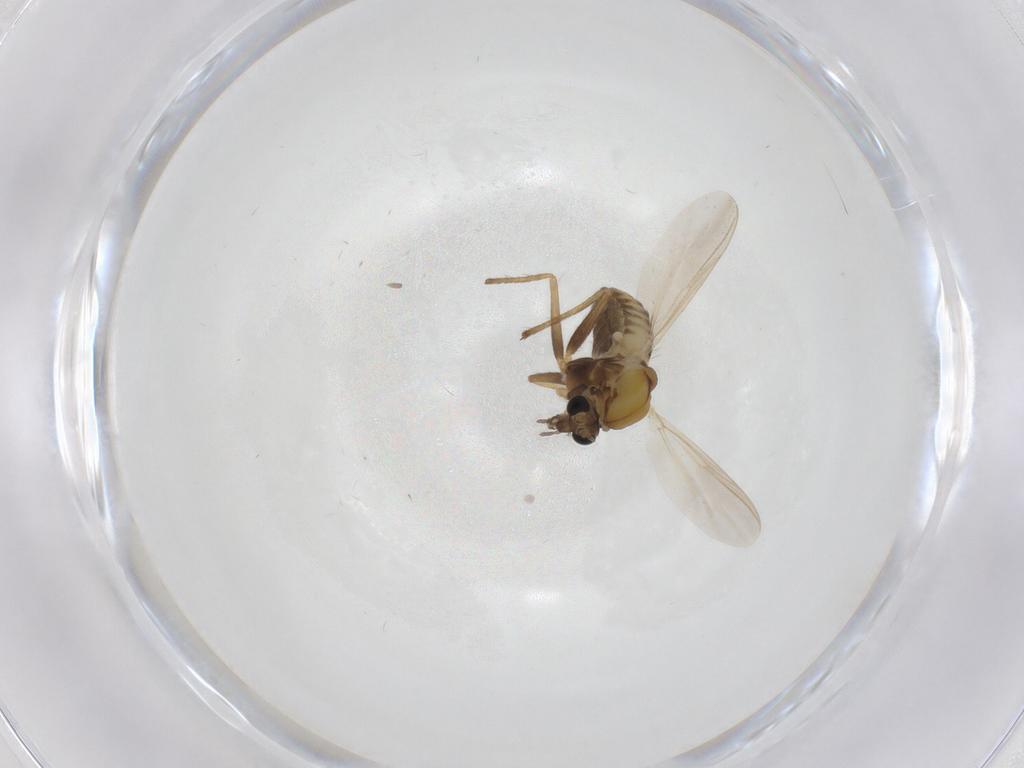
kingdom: Animalia
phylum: Arthropoda
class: Insecta
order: Diptera
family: Chironomidae
